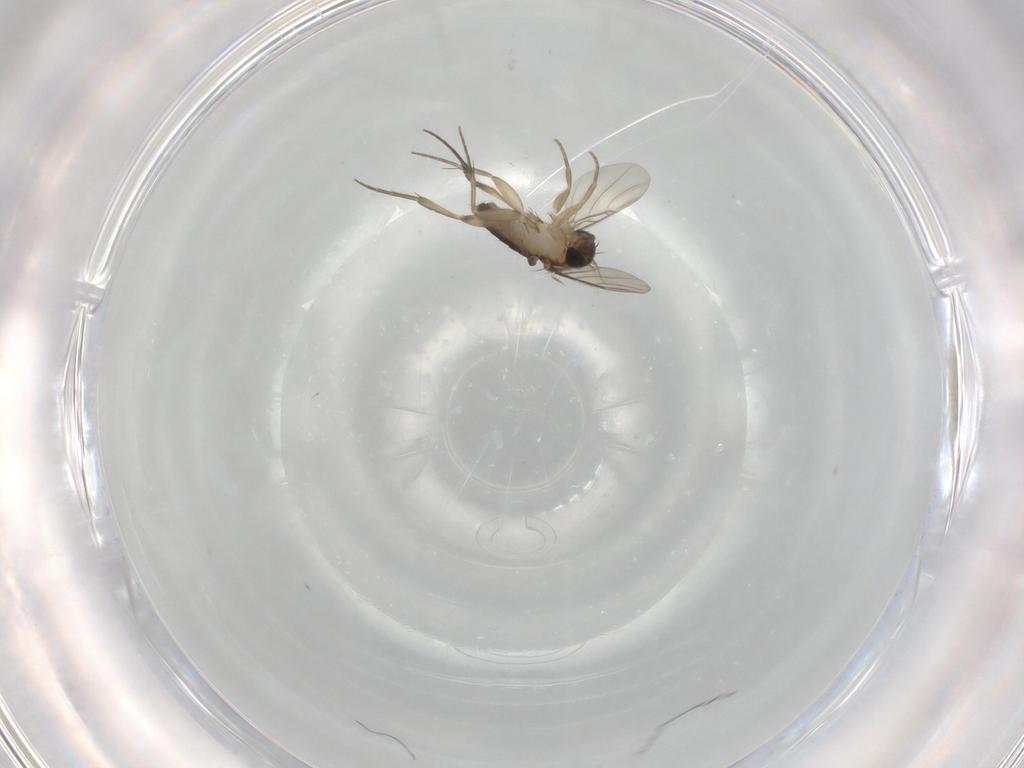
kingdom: Animalia
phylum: Arthropoda
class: Insecta
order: Diptera
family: Phoridae
